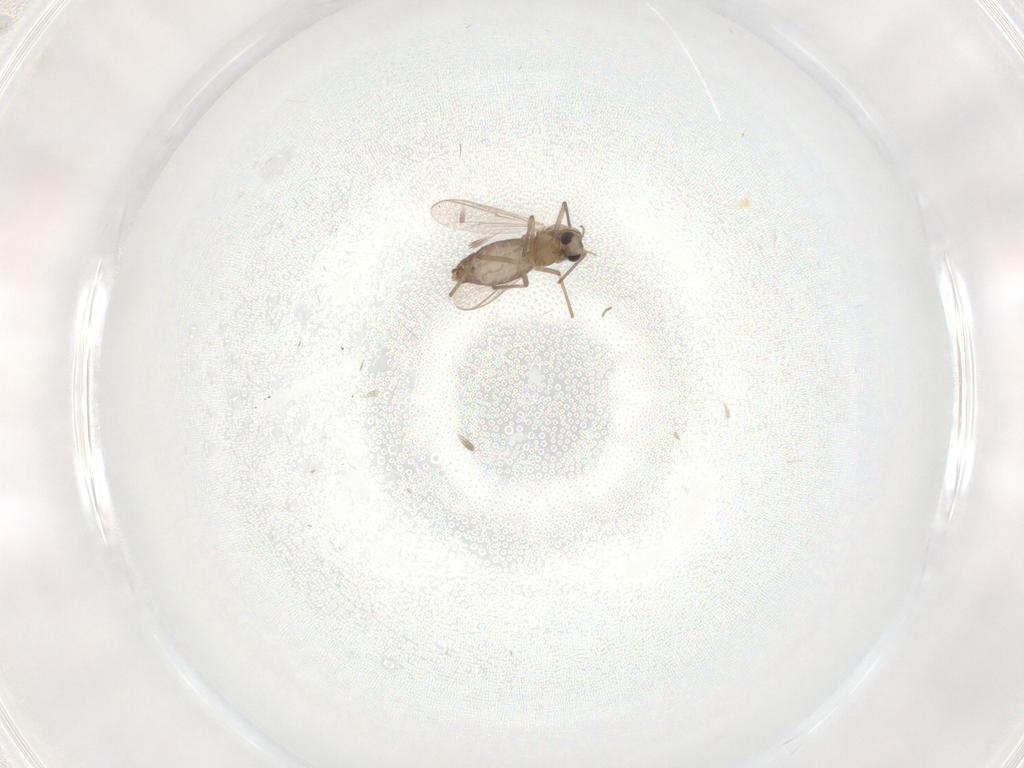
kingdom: Animalia
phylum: Arthropoda
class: Insecta
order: Diptera
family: Chironomidae
